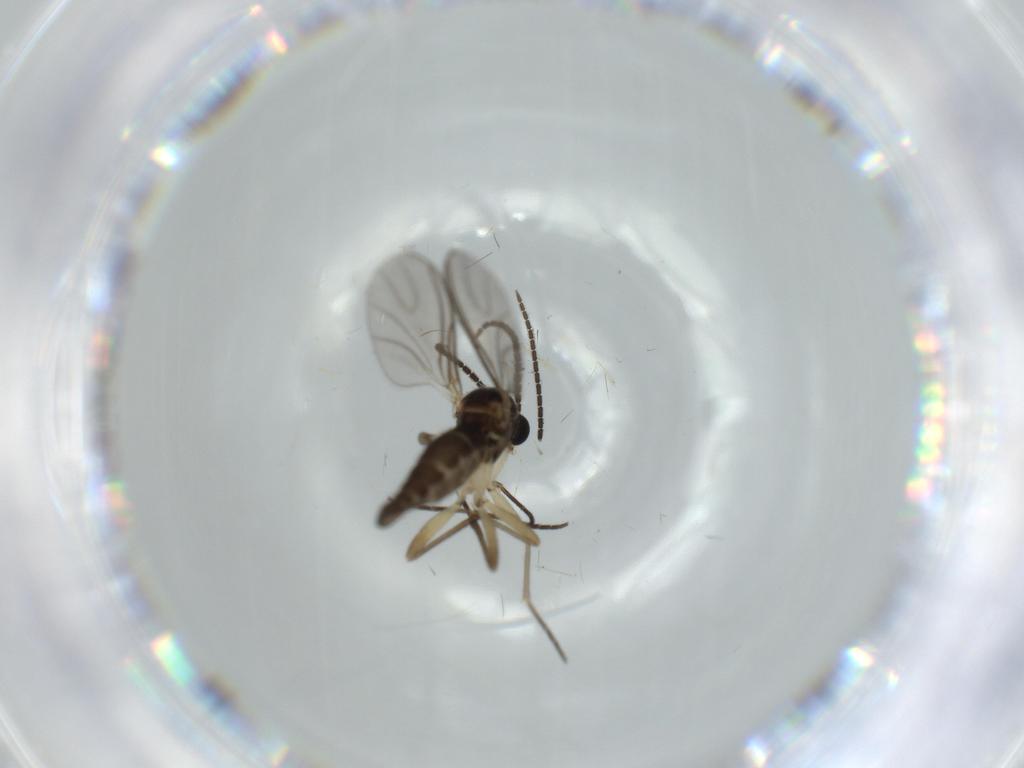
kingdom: Animalia
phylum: Arthropoda
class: Insecta
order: Diptera
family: Sciaridae
